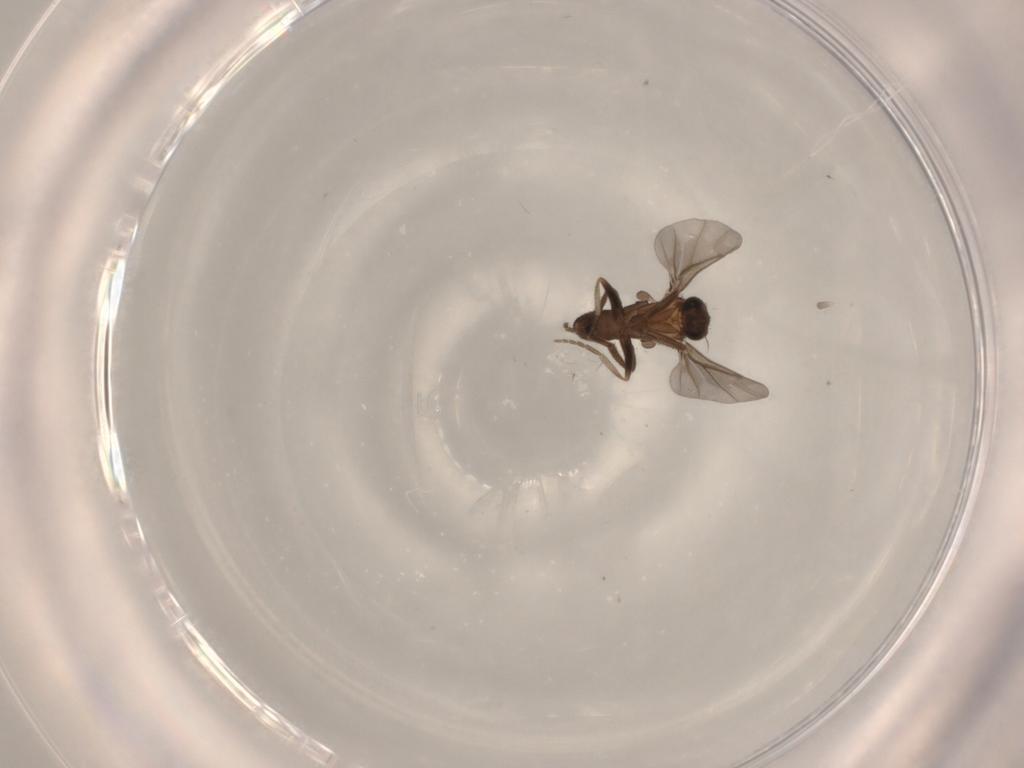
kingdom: Animalia
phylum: Arthropoda
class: Insecta
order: Diptera
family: Phoridae
